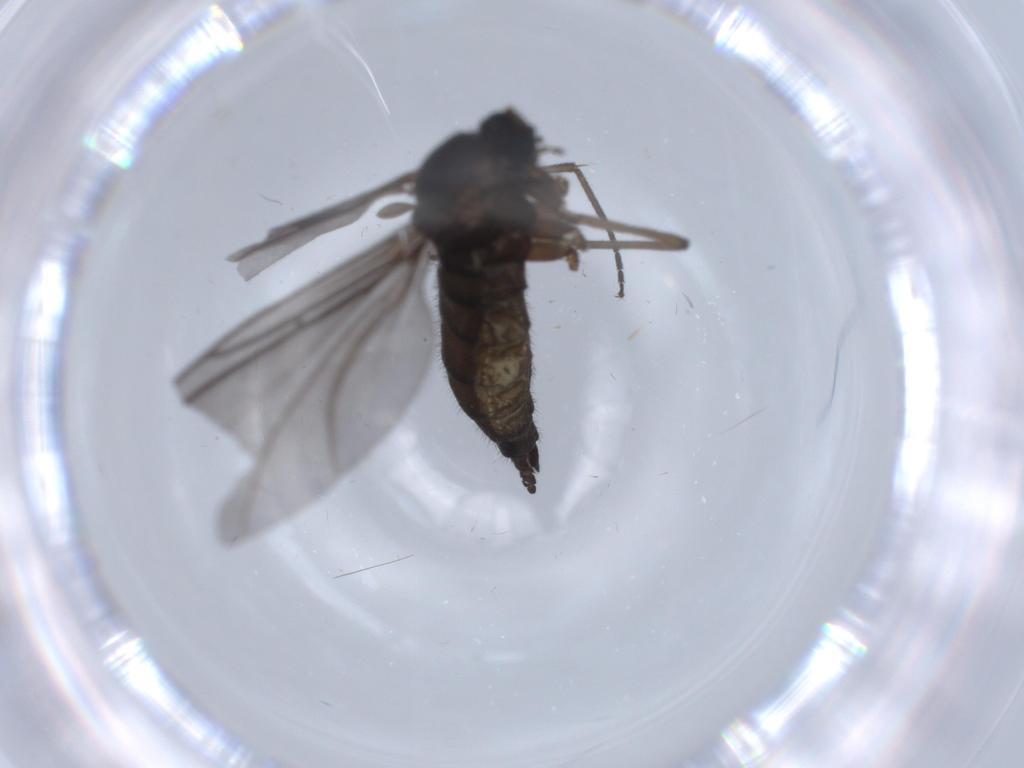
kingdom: Animalia
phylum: Arthropoda
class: Insecta
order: Diptera
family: Sciaridae
